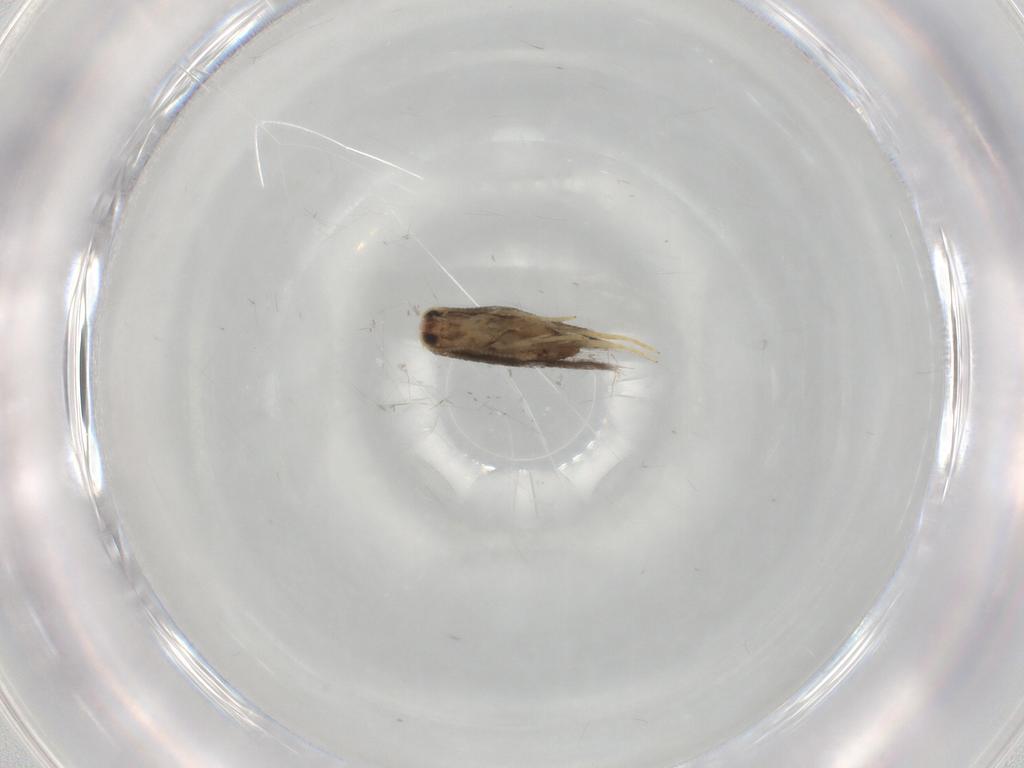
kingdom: Animalia
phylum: Arthropoda
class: Insecta
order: Lepidoptera
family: Nepticulidae
